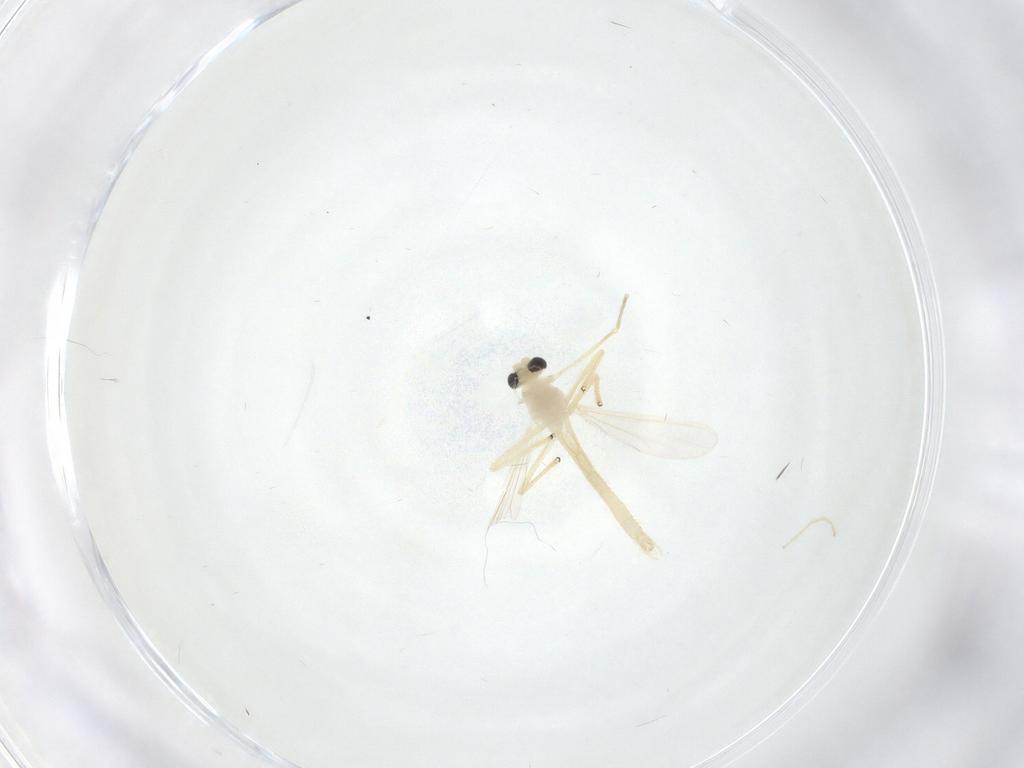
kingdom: Animalia
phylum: Arthropoda
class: Insecta
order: Diptera
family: Chironomidae
